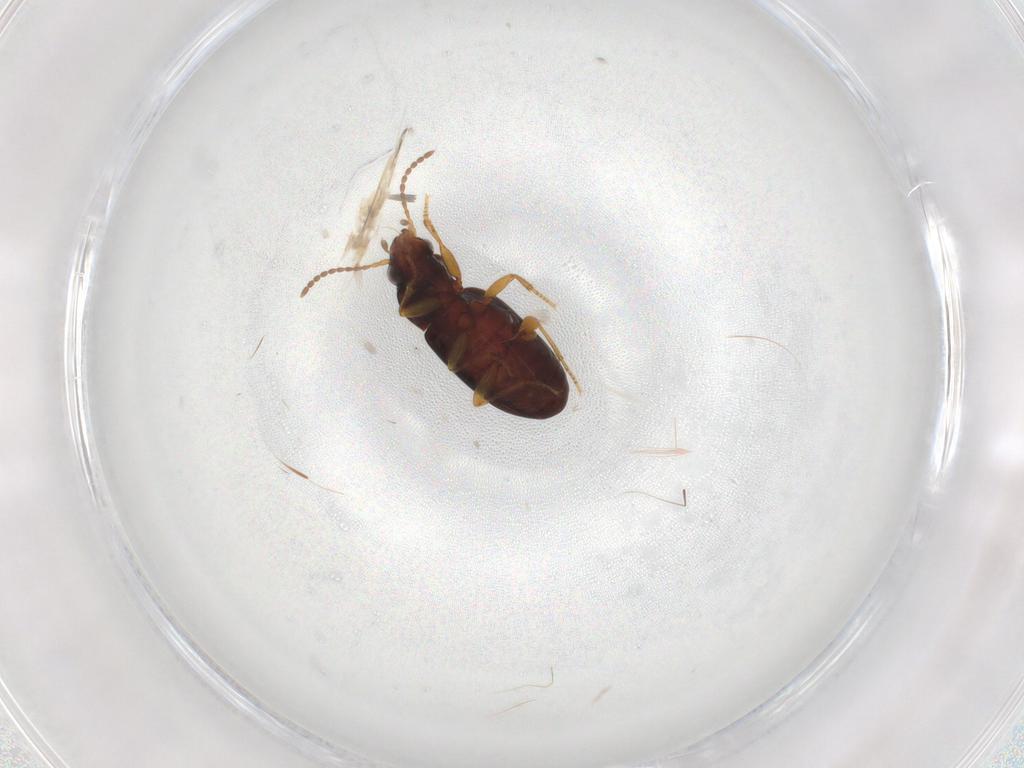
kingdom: Animalia
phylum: Arthropoda
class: Insecta
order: Coleoptera
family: Carabidae
